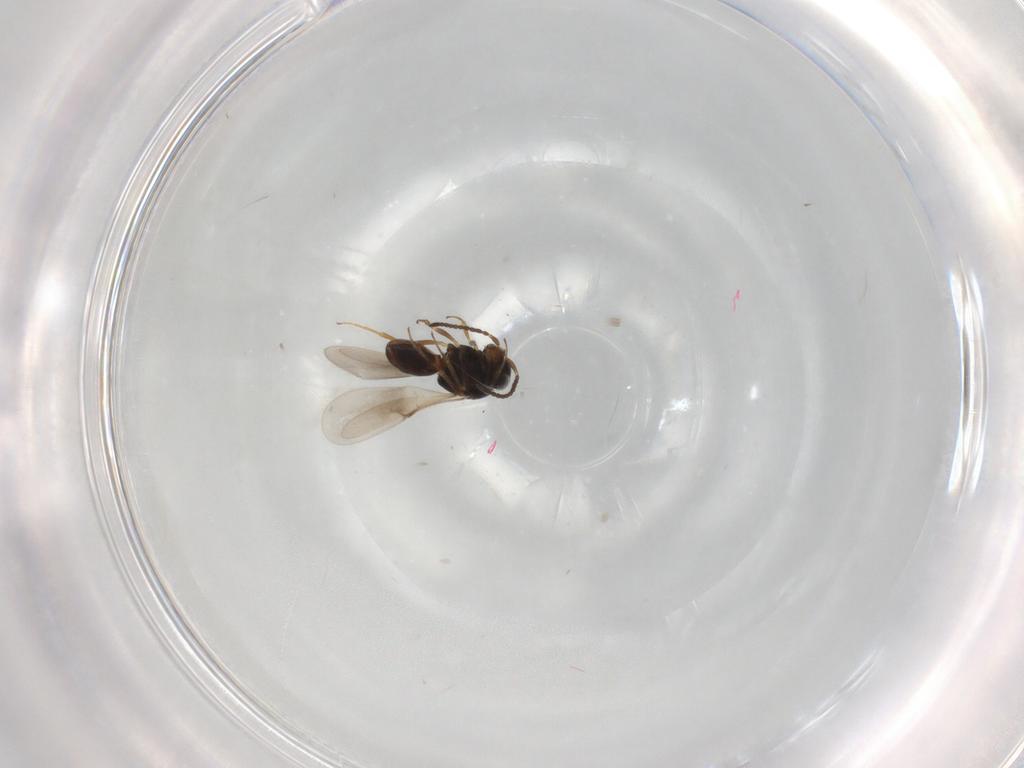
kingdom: Animalia
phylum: Arthropoda
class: Insecta
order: Hymenoptera
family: Scelionidae
